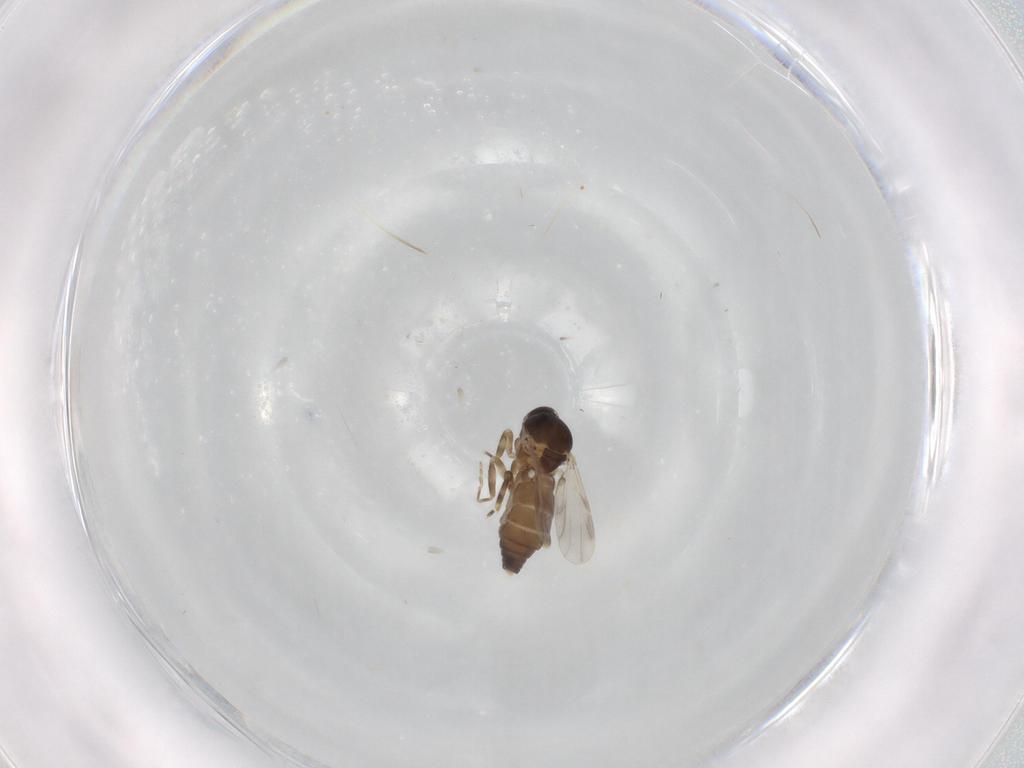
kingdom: Animalia
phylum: Arthropoda
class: Insecta
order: Diptera
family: Ceratopogonidae
